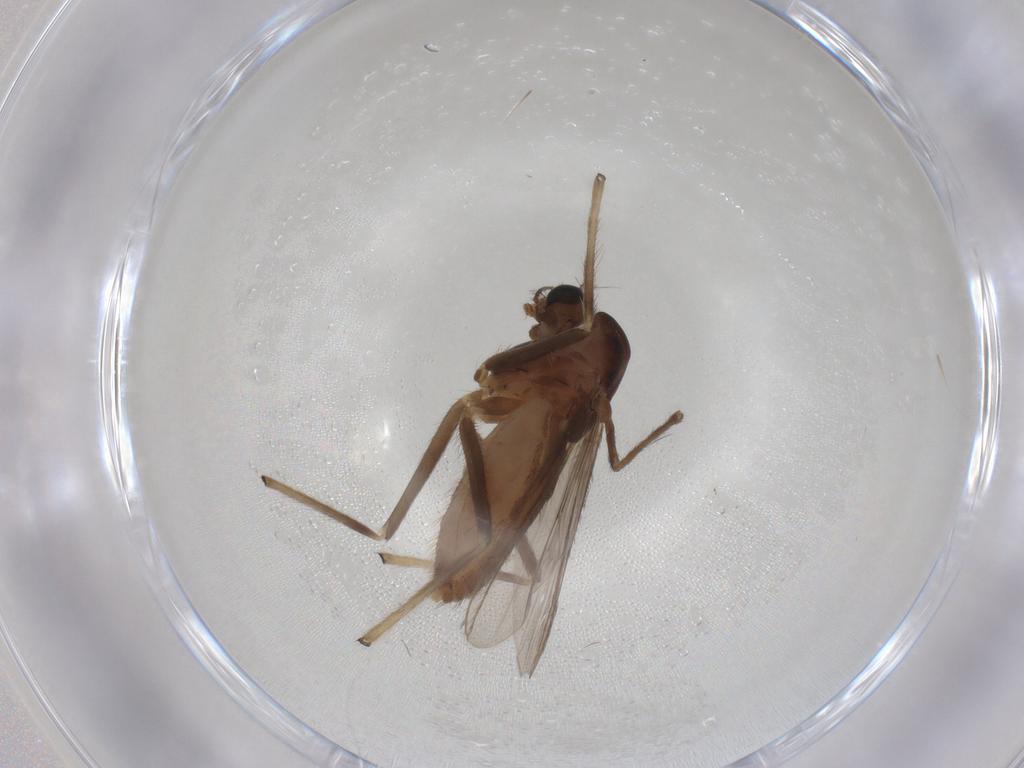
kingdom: Animalia
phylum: Arthropoda
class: Insecta
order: Diptera
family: Chironomidae
